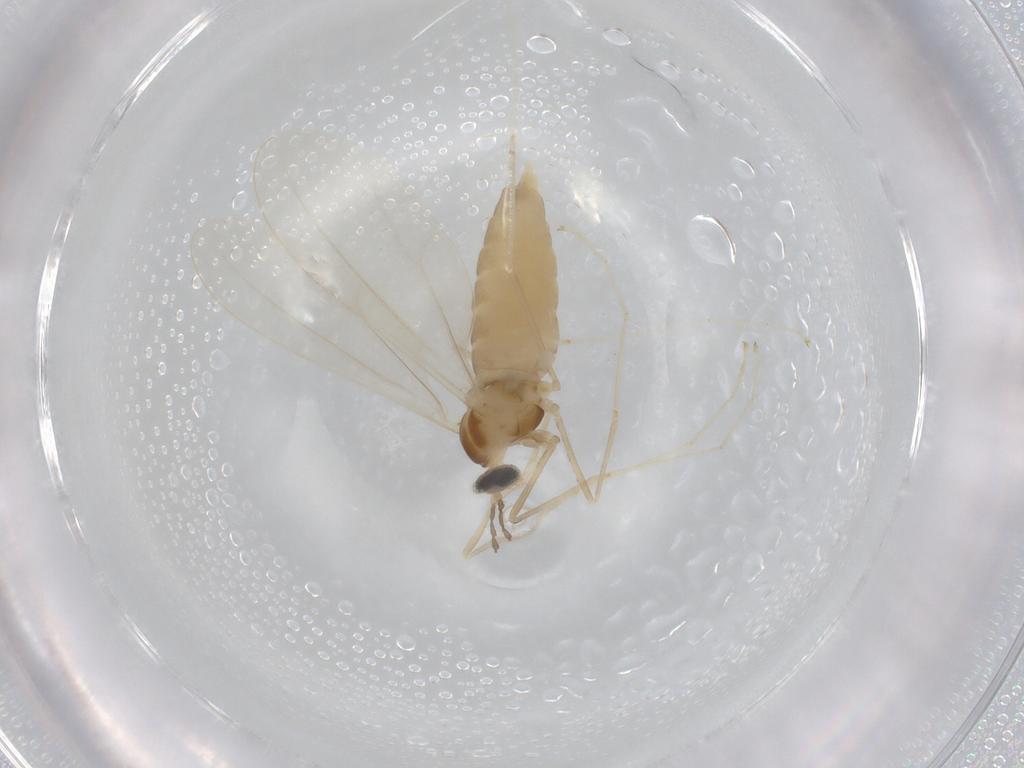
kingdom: Animalia
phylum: Arthropoda
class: Insecta
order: Diptera
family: Cecidomyiidae
